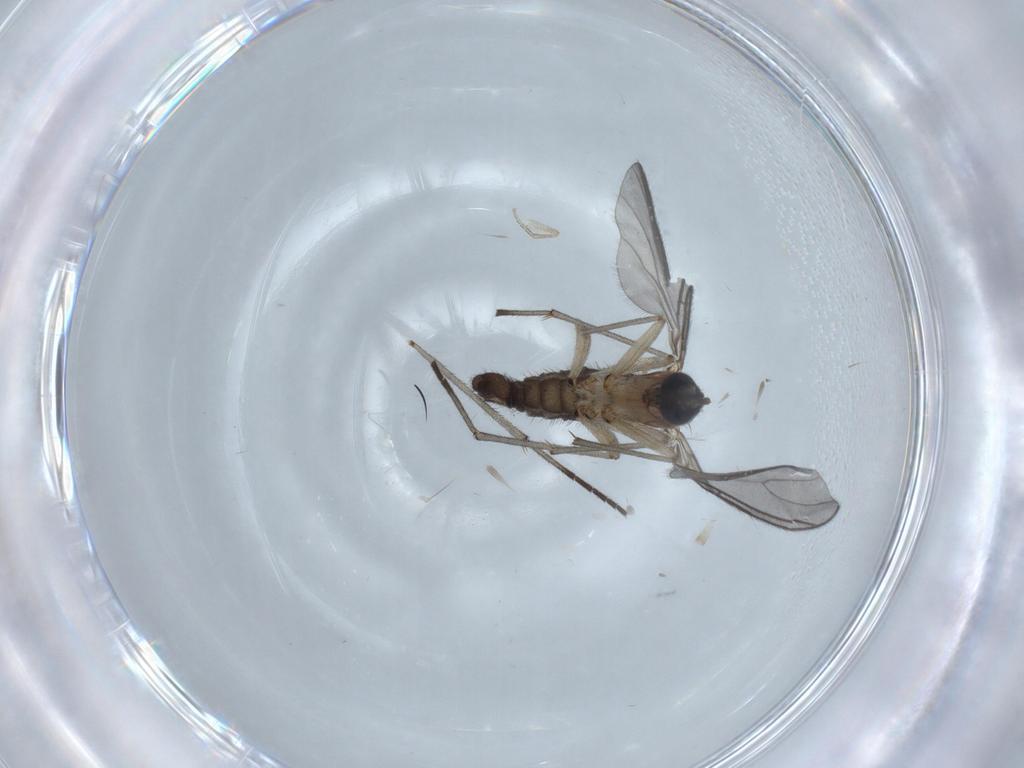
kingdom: Animalia
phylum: Arthropoda
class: Insecta
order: Diptera
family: Sciaridae
